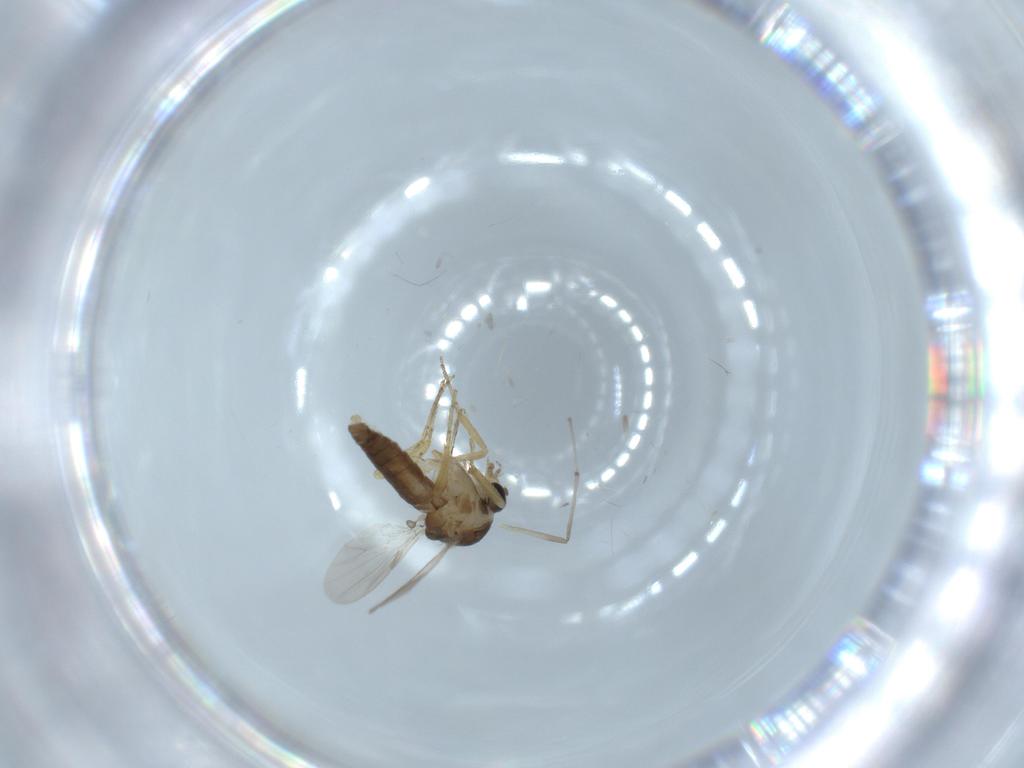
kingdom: Animalia
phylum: Arthropoda
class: Insecta
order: Diptera
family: Ceratopogonidae
